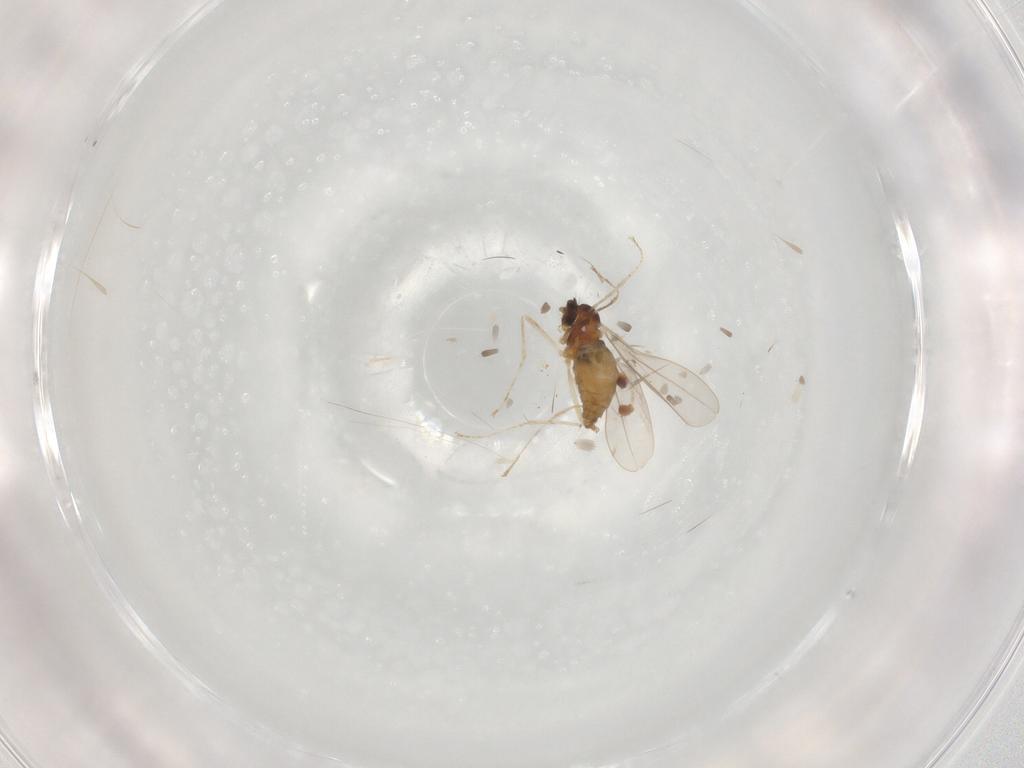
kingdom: Animalia
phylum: Arthropoda
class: Insecta
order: Diptera
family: Cecidomyiidae
